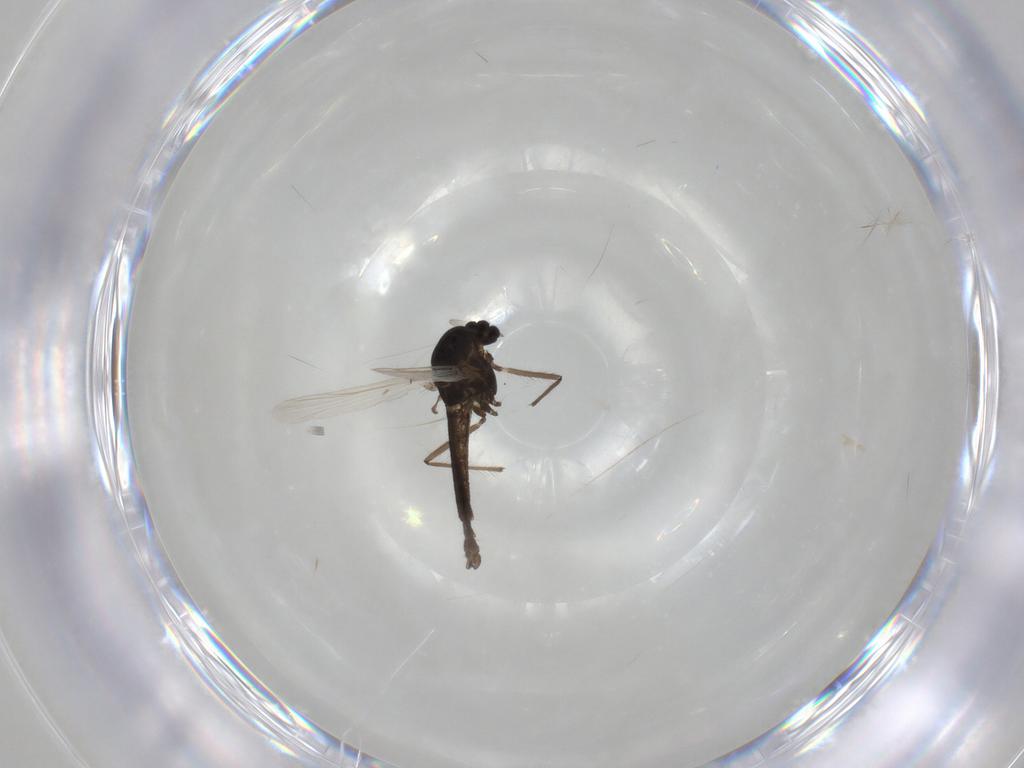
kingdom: Animalia
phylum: Arthropoda
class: Insecta
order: Diptera
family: Chironomidae
